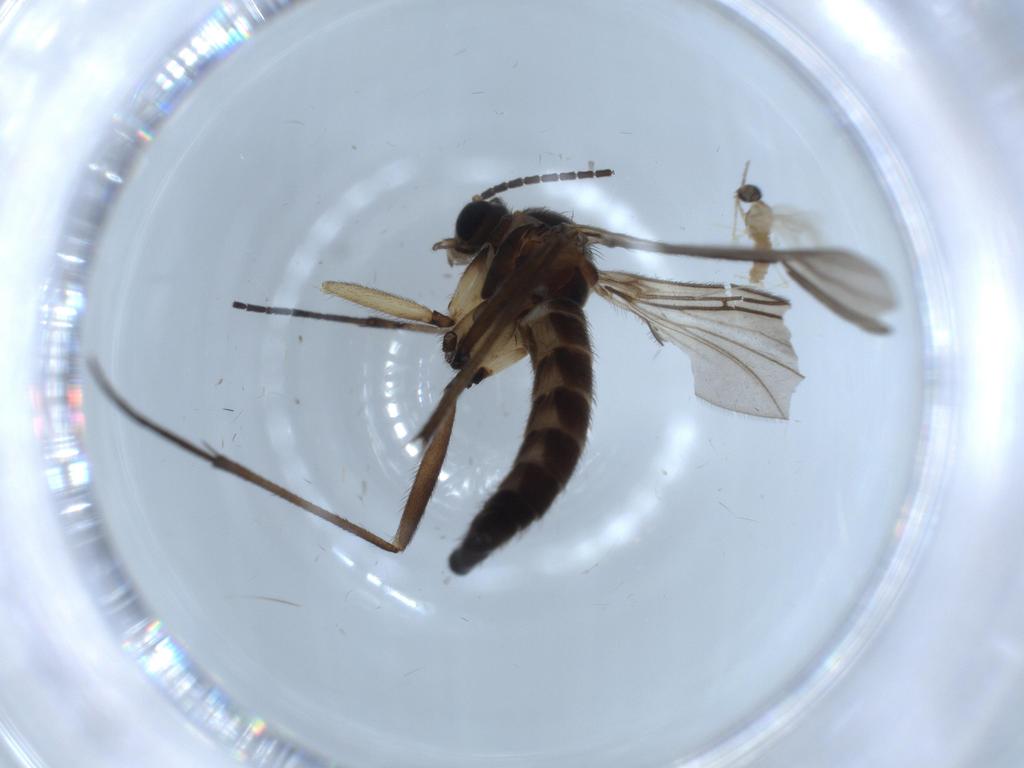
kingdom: Animalia
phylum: Arthropoda
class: Insecta
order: Diptera
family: Sciaridae
